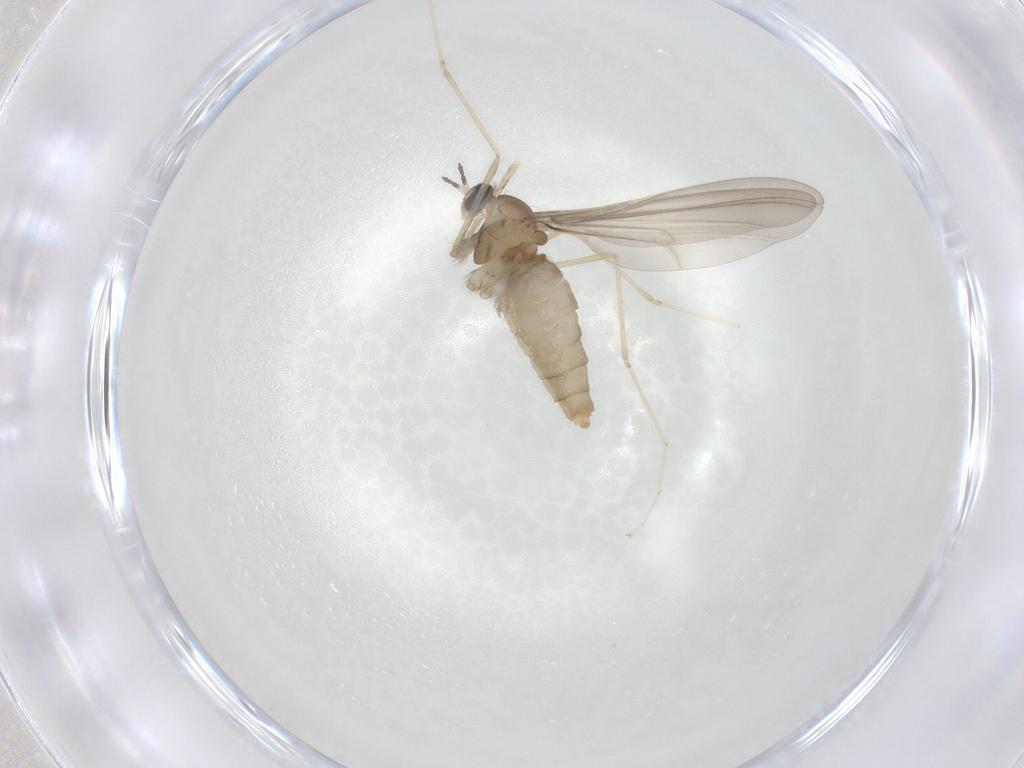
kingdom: Animalia
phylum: Arthropoda
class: Insecta
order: Diptera
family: Cecidomyiidae
